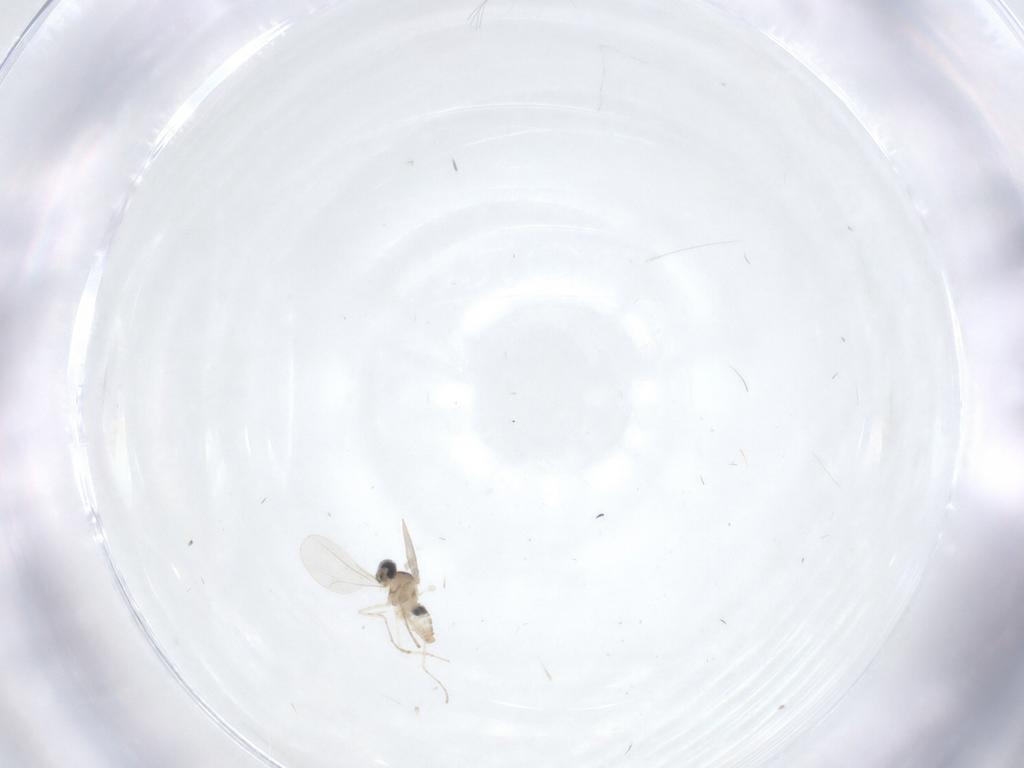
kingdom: Animalia
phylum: Arthropoda
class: Insecta
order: Diptera
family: Cecidomyiidae
